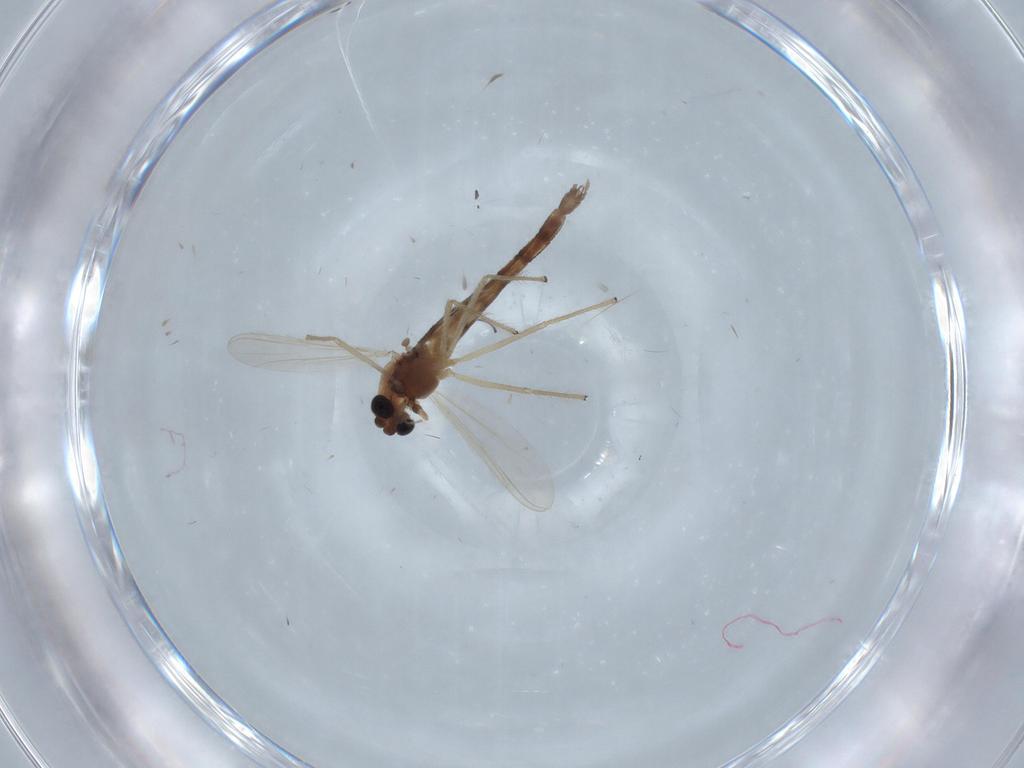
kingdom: Animalia
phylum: Arthropoda
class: Insecta
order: Diptera
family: Chironomidae
